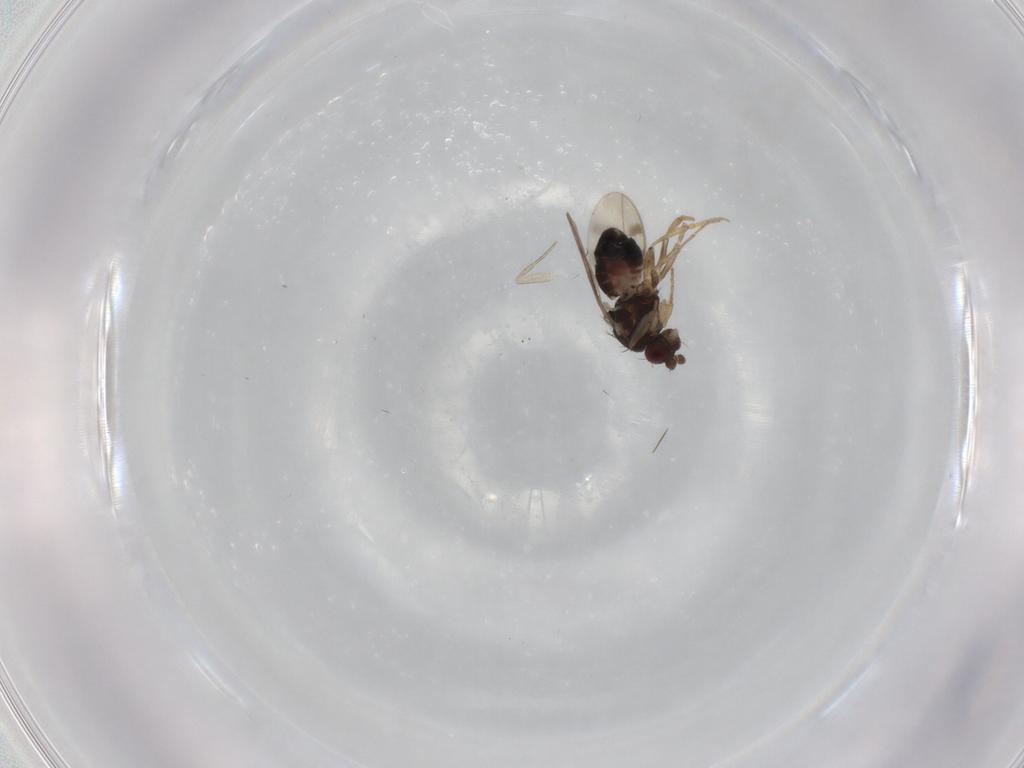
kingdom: Animalia
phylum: Arthropoda
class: Insecta
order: Diptera
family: Sphaeroceridae
